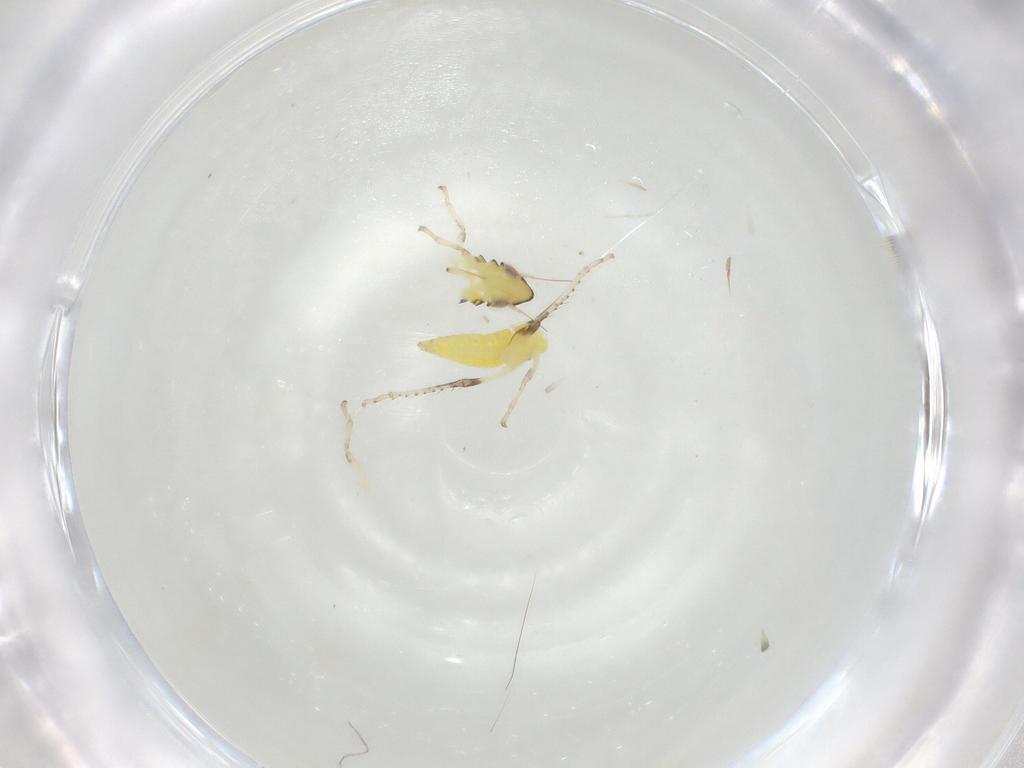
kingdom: Animalia
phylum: Arthropoda
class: Insecta
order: Hemiptera
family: Cicadellidae
